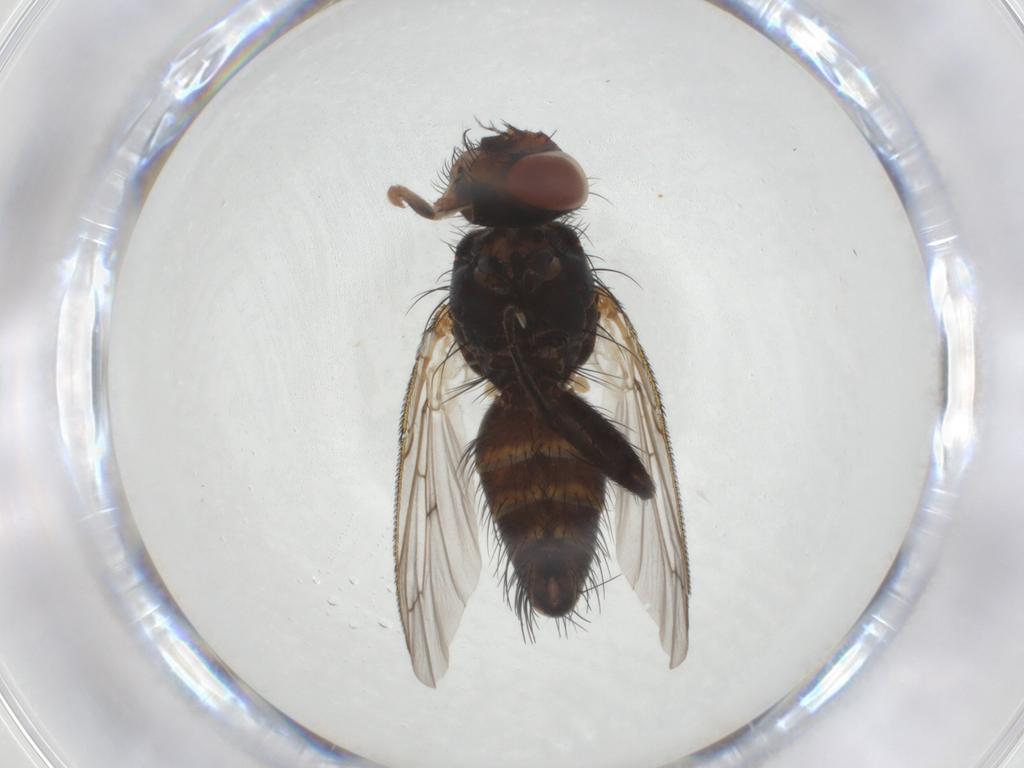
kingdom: Animalia
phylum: Arthropoda
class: Insecta
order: Diptera
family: Tachinidae
